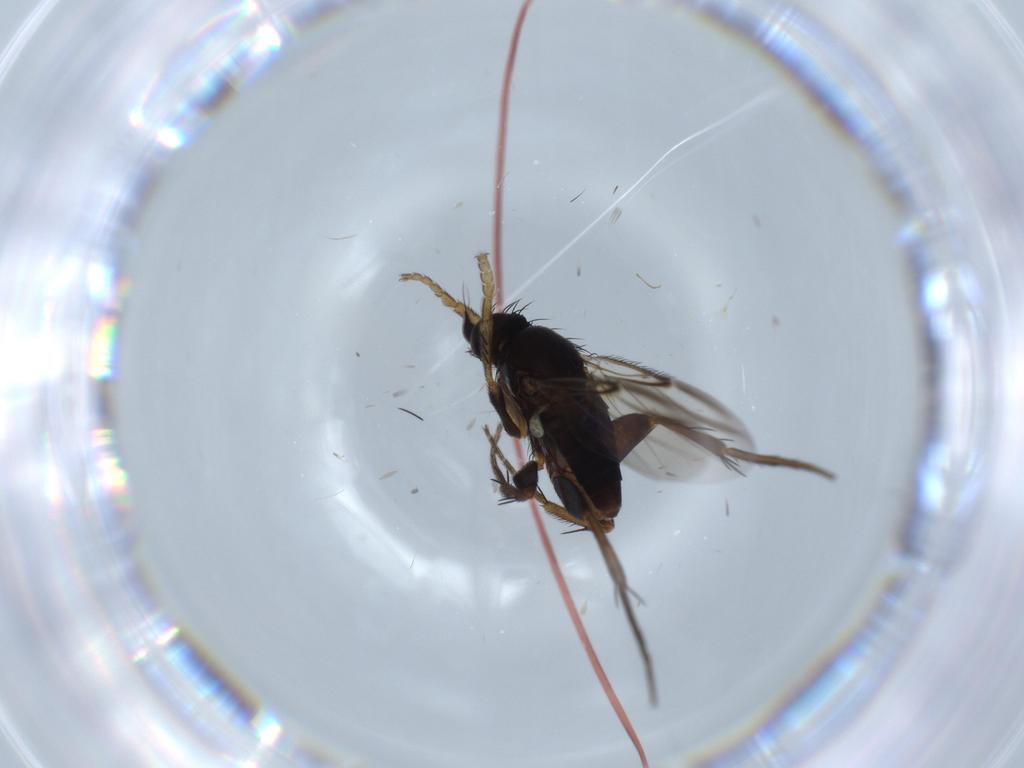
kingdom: Animalia
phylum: Arthropoda
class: Insecta
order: Diptera
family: Phoridae
